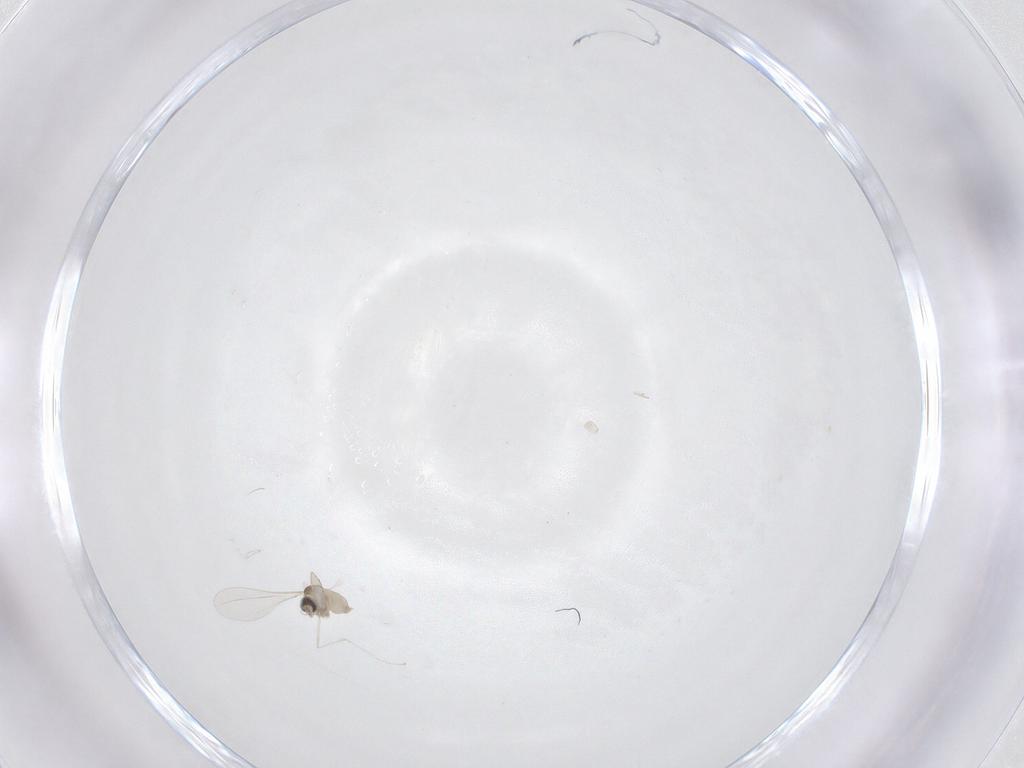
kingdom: Animalia
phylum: Arthropoda
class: Insecta
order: Diptera
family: Cecidomyiidae
